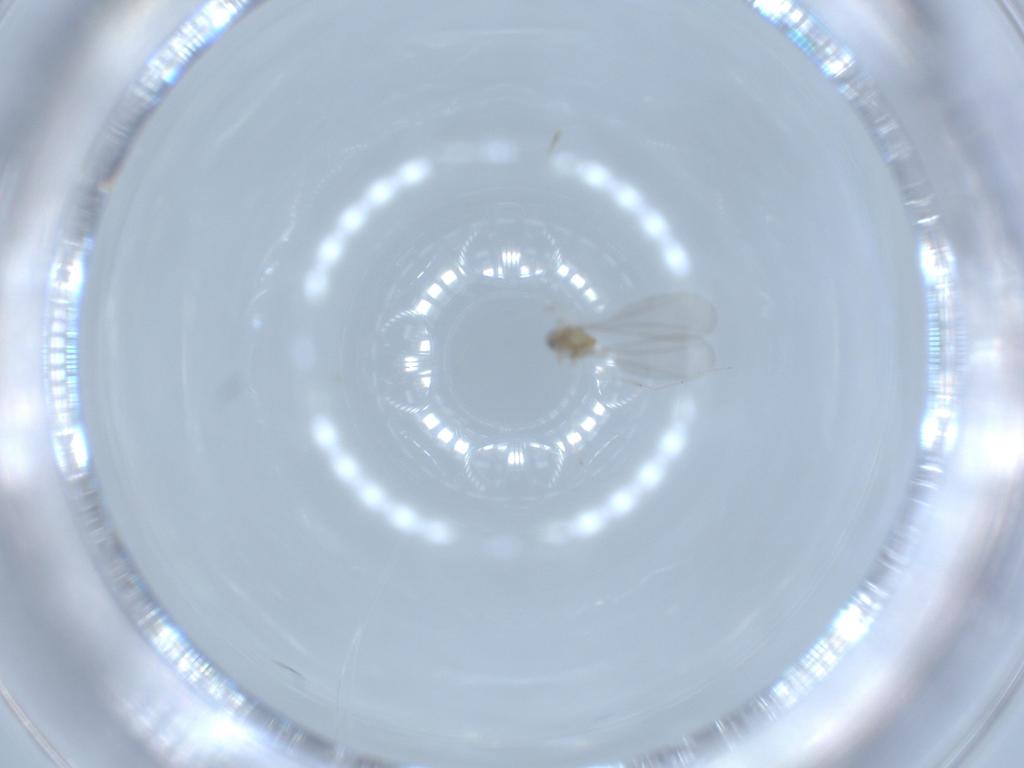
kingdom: Animalia
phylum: Arthropoda
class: Insecta
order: Diptera
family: Cecidomyiidae
